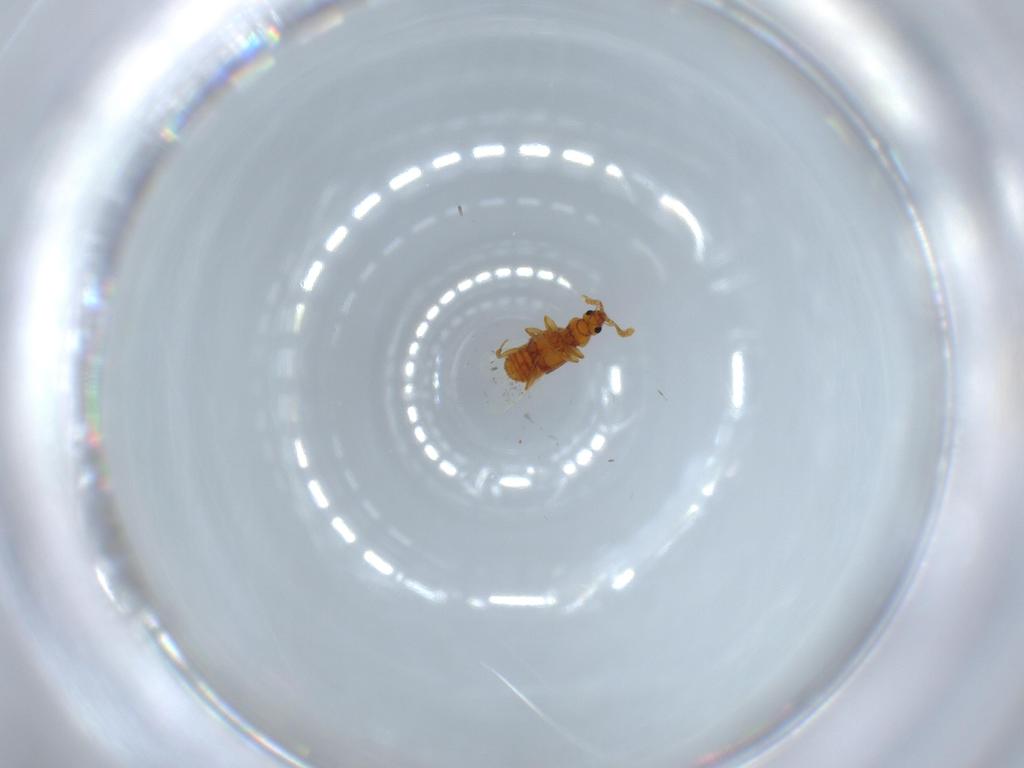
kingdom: Animalia
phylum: Arthropoda
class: Insecta
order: Coleoptera
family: Staphylinidae
